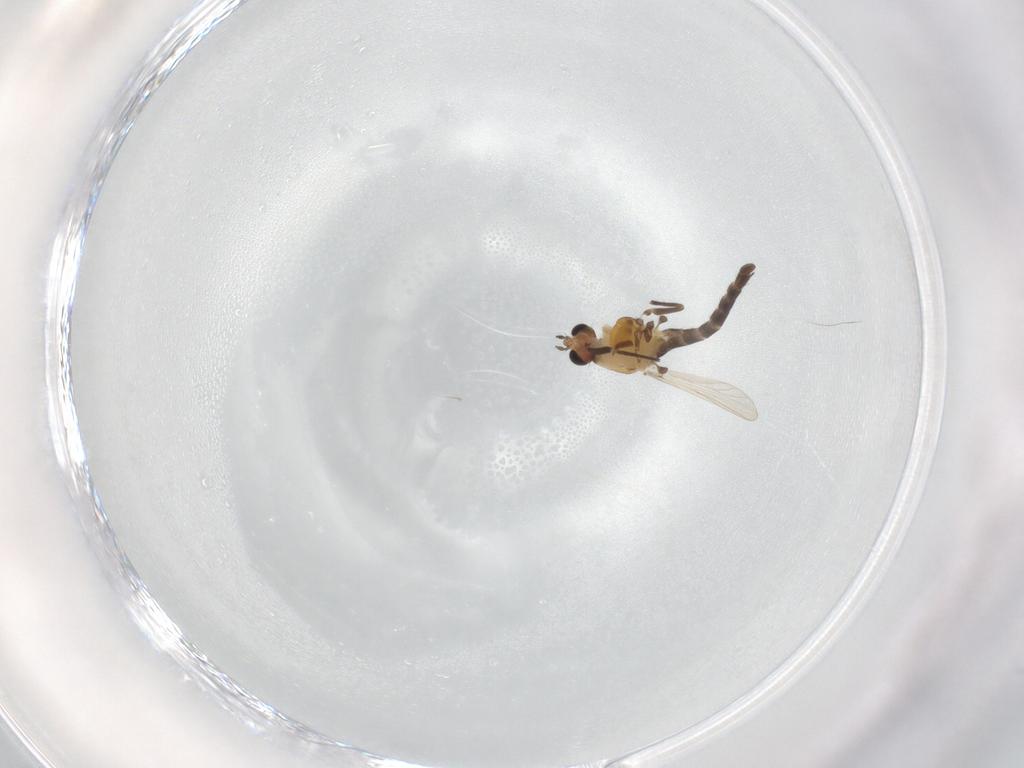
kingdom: Animalia
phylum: Arthropoda
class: Insecta
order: Diptera
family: Chironomidae
